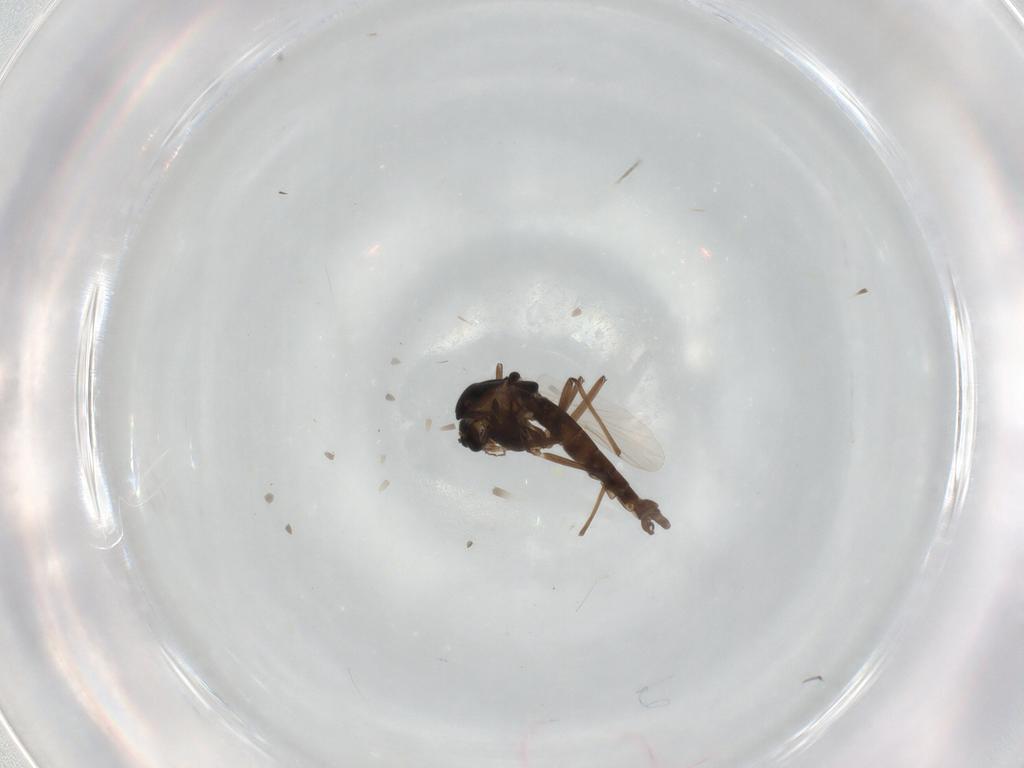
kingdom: Animalia
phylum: Arthropoda
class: Insecta
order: Diptera
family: Chironomidae
